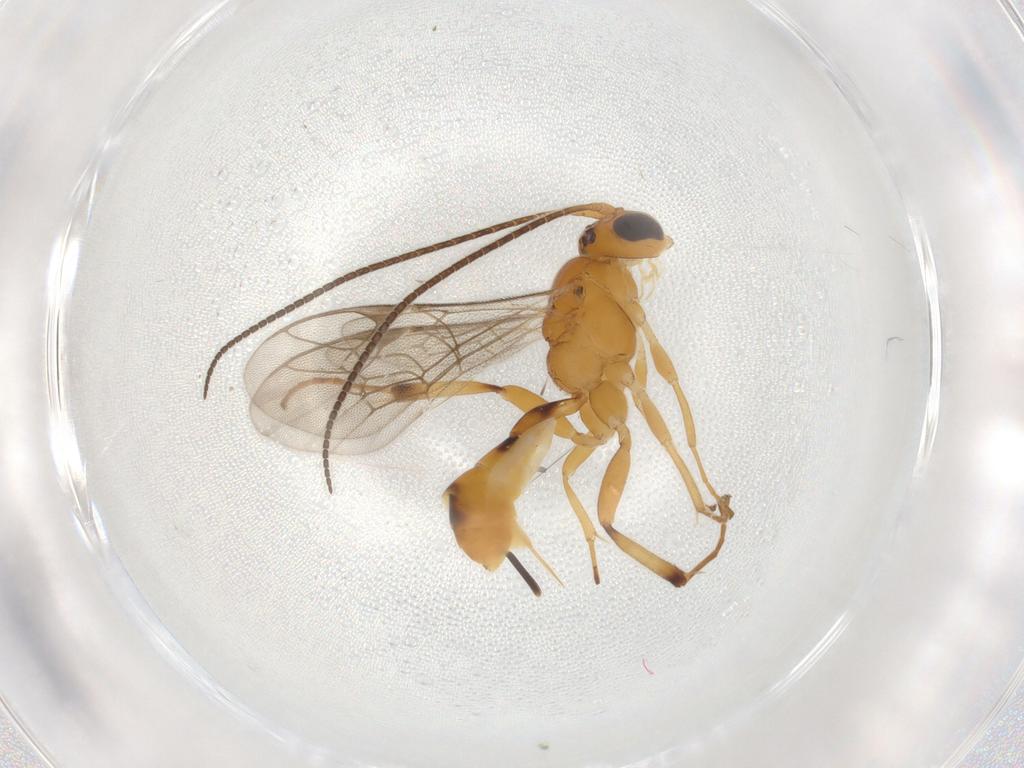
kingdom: Animalia
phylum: Arthropoda
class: Insecta
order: Hymenoptera
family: Ichneumonidae
